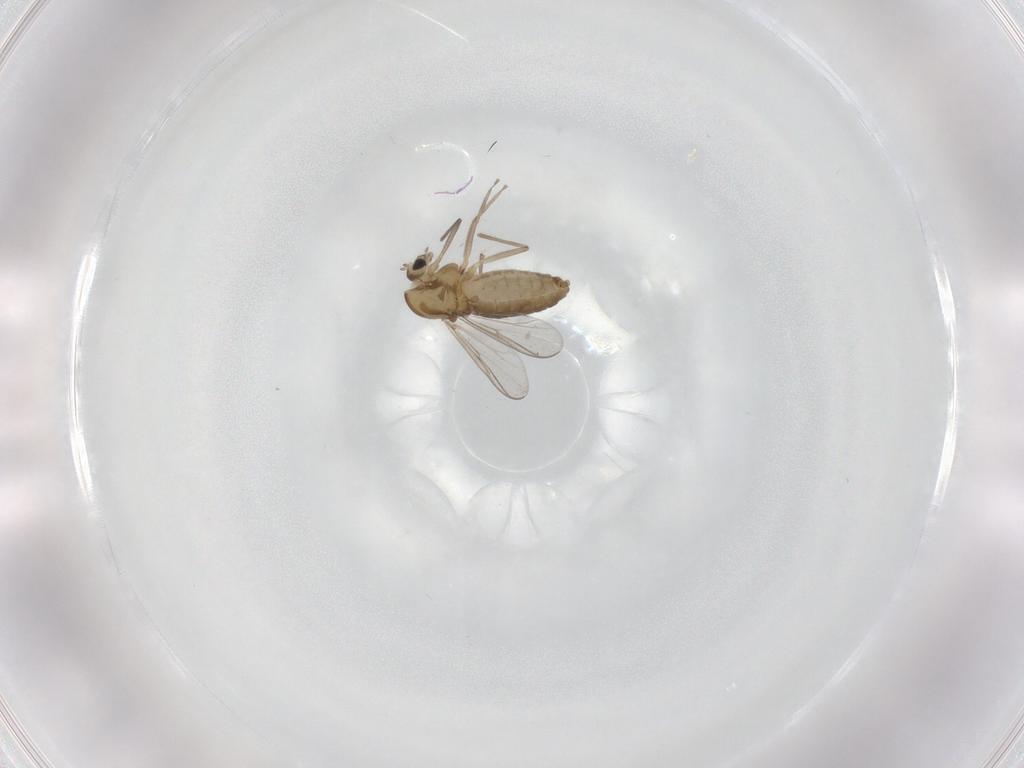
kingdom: Animalia
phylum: Arthropoda
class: Insecta
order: Diptera
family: Chironomidae
